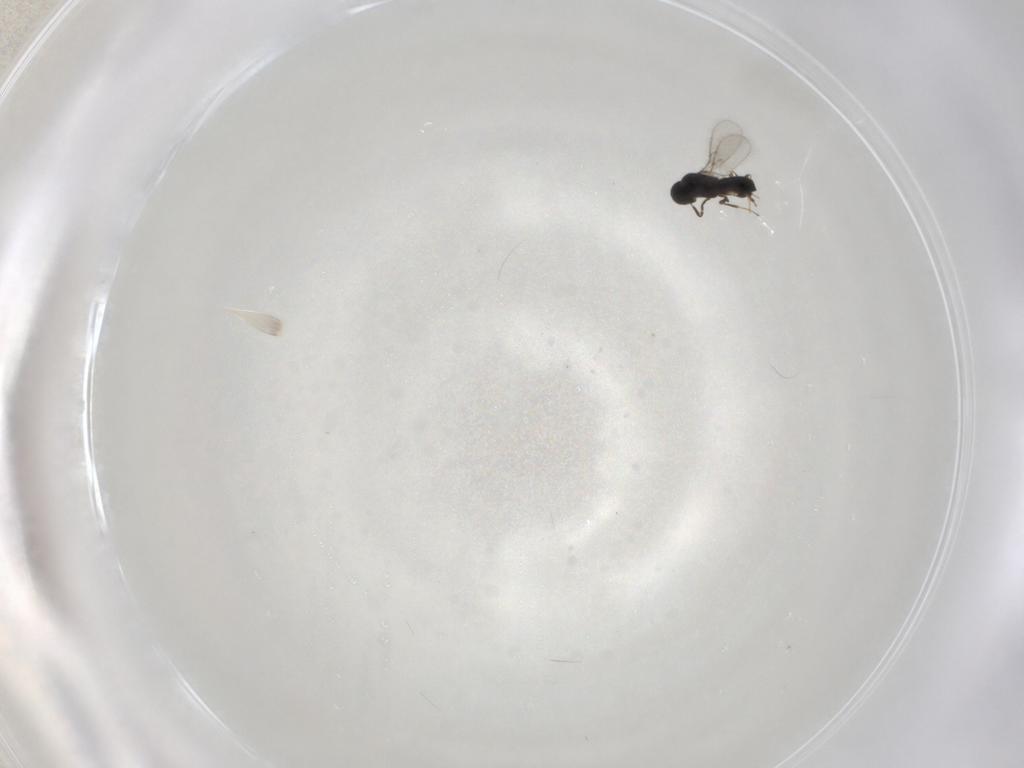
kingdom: Animalia
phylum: Arthropoda
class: Insecta
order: Hymenoptera
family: Scelionidae
